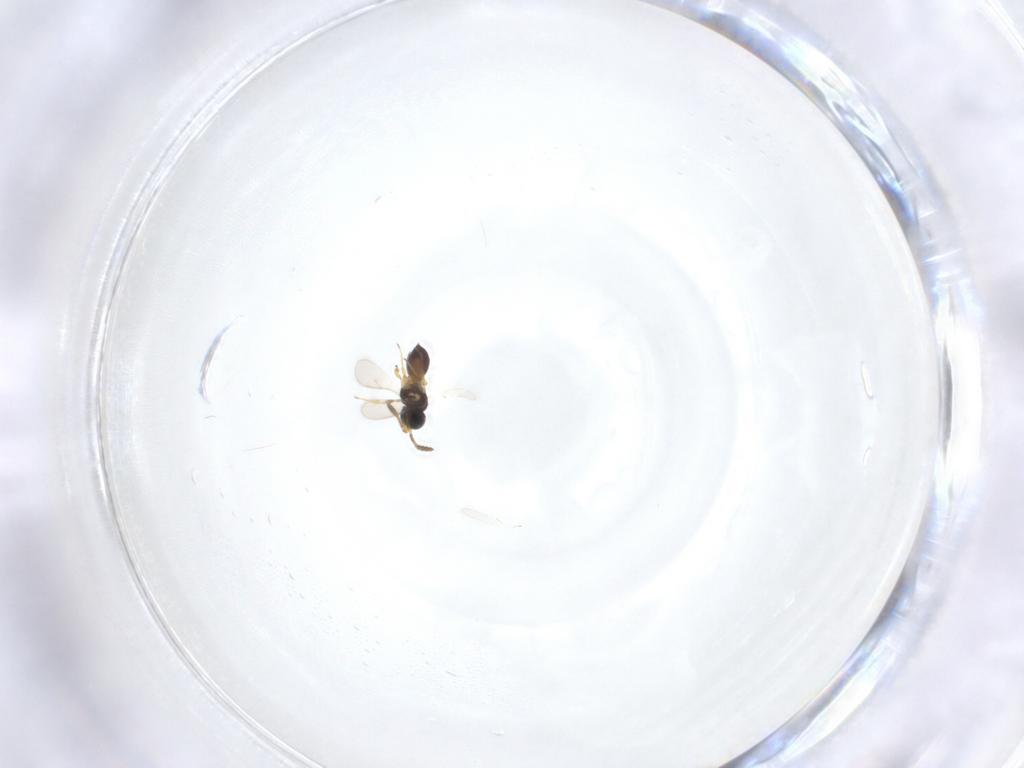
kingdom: Animalia
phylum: Arthropoda
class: Insecta
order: Hymenoptera
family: Scelionidae
